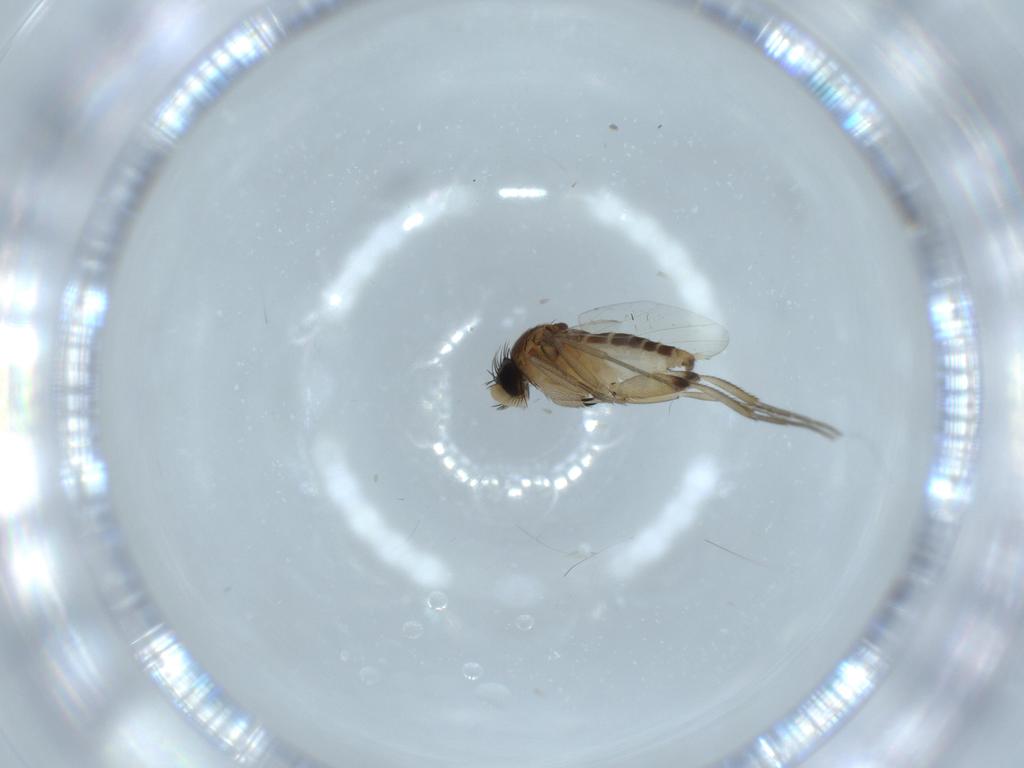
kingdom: Animalia
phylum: Arthropoda
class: Insecta
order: Diptera
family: Phoridae
